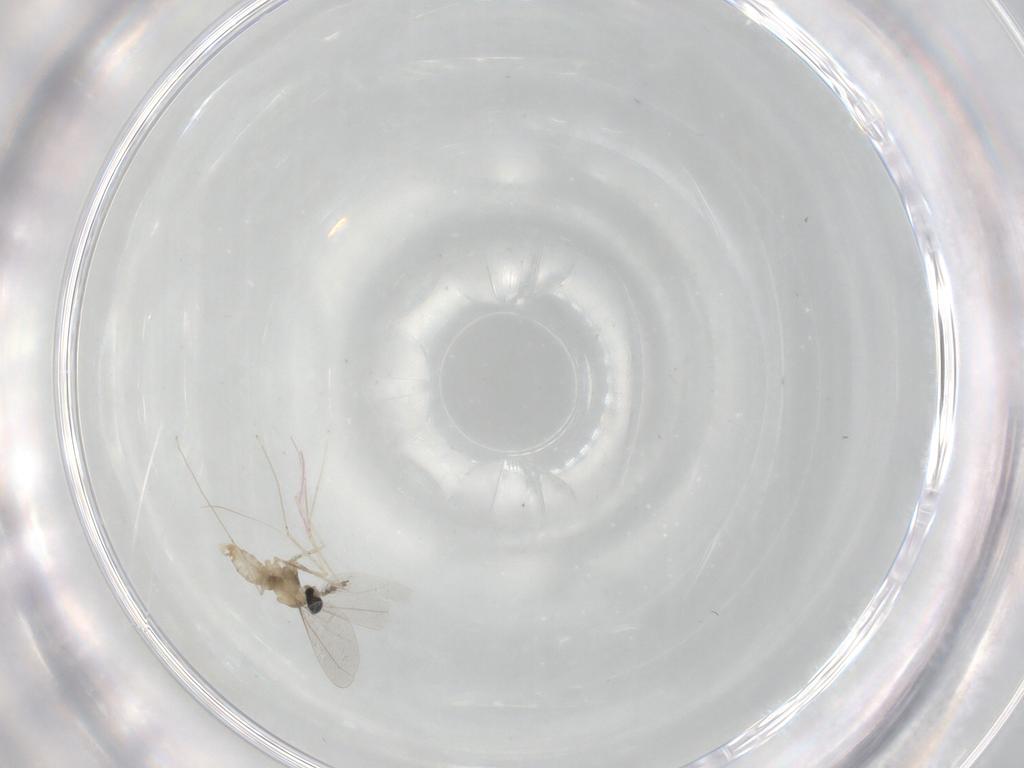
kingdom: Animalia
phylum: Arthropoda
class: Insecta
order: Diptera
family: Cecidomyiidae
